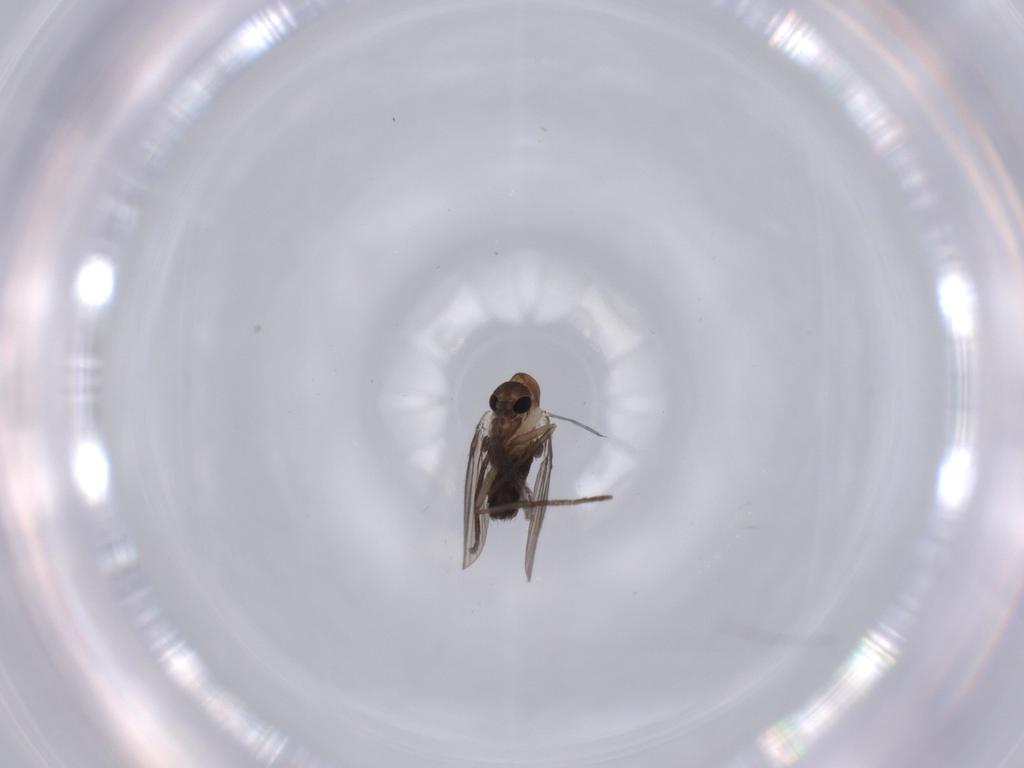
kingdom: Animalia
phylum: Arthropoda
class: Insecta
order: Diptera
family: Psychodidae
